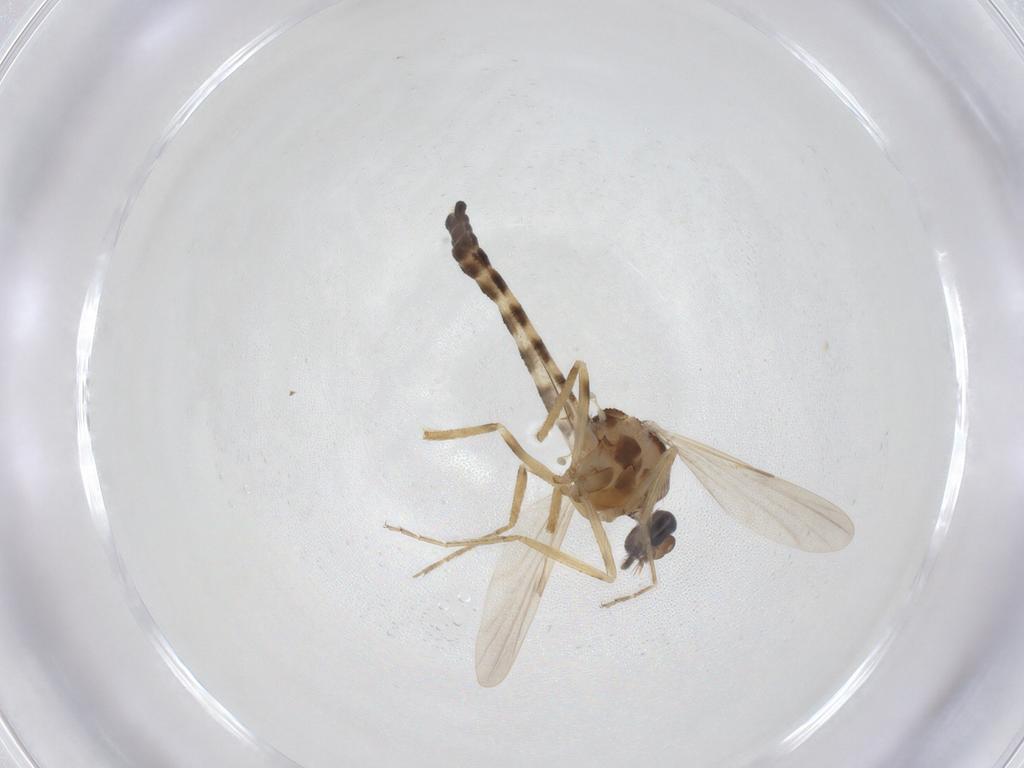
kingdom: Animalia
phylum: Arthropoda
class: Insecta
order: Diptera
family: Ceratopogonidae
